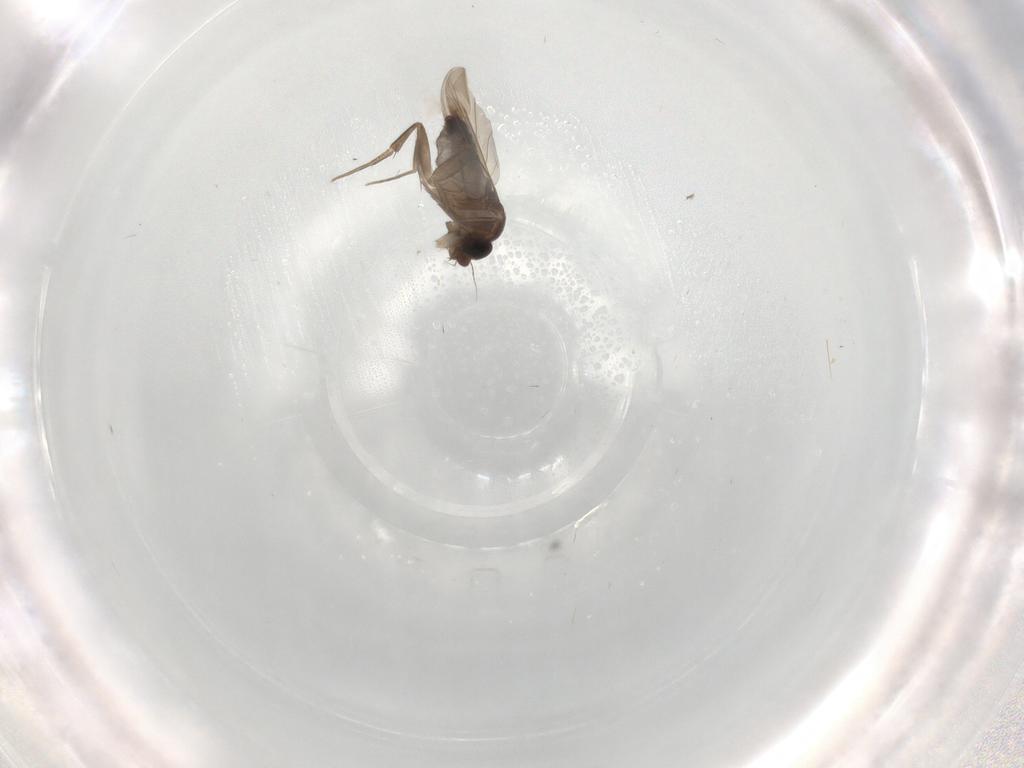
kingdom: Animalia
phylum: Arthropoda
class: Insecta
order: Diptera
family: Phoridae
